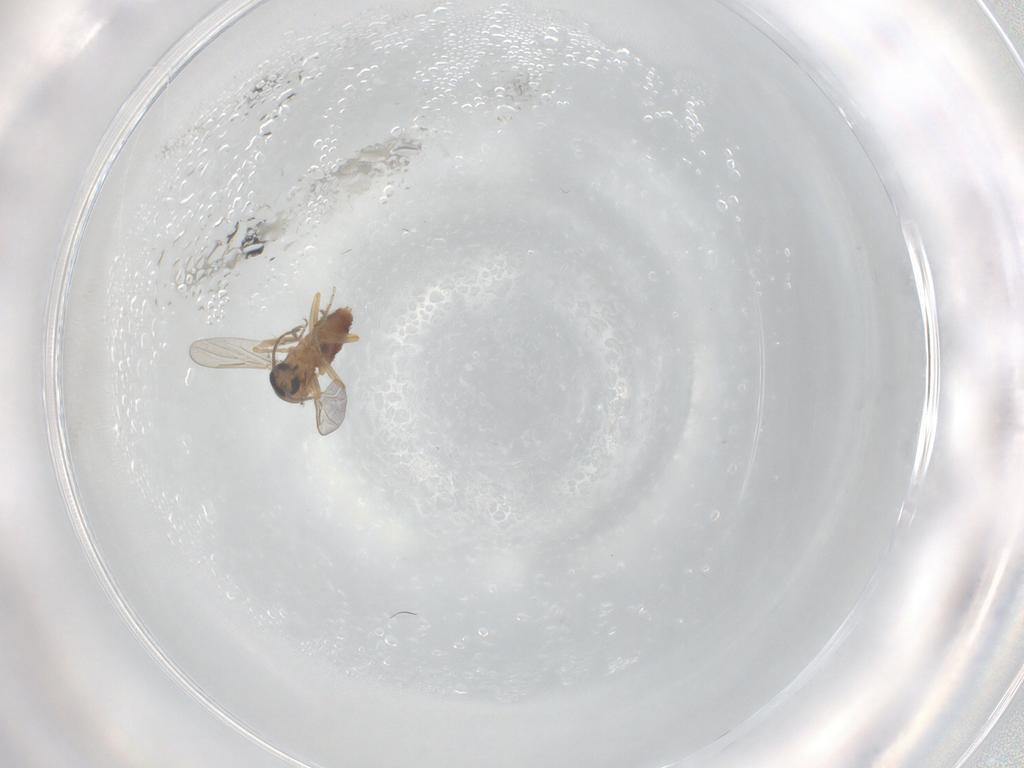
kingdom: Animalia
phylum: Arthropoda
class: Insecta
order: Diptera
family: Ceratopogonidae
